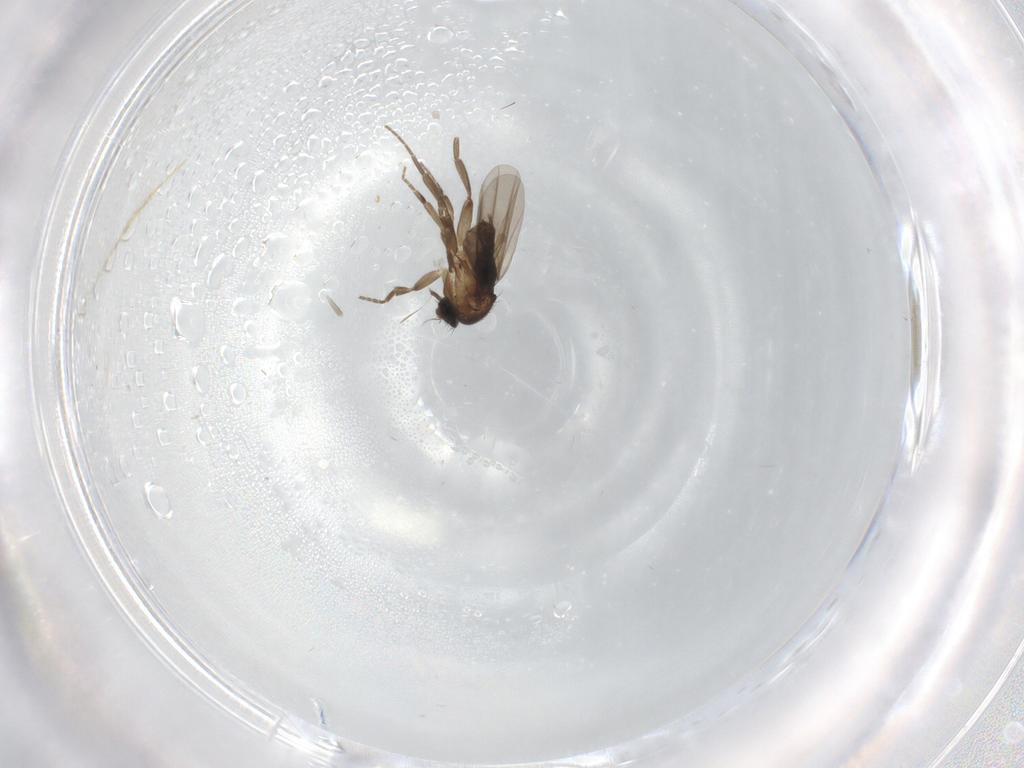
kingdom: Animalia
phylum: Arthropoda
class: Insecta
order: Diptera
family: Phoridae
